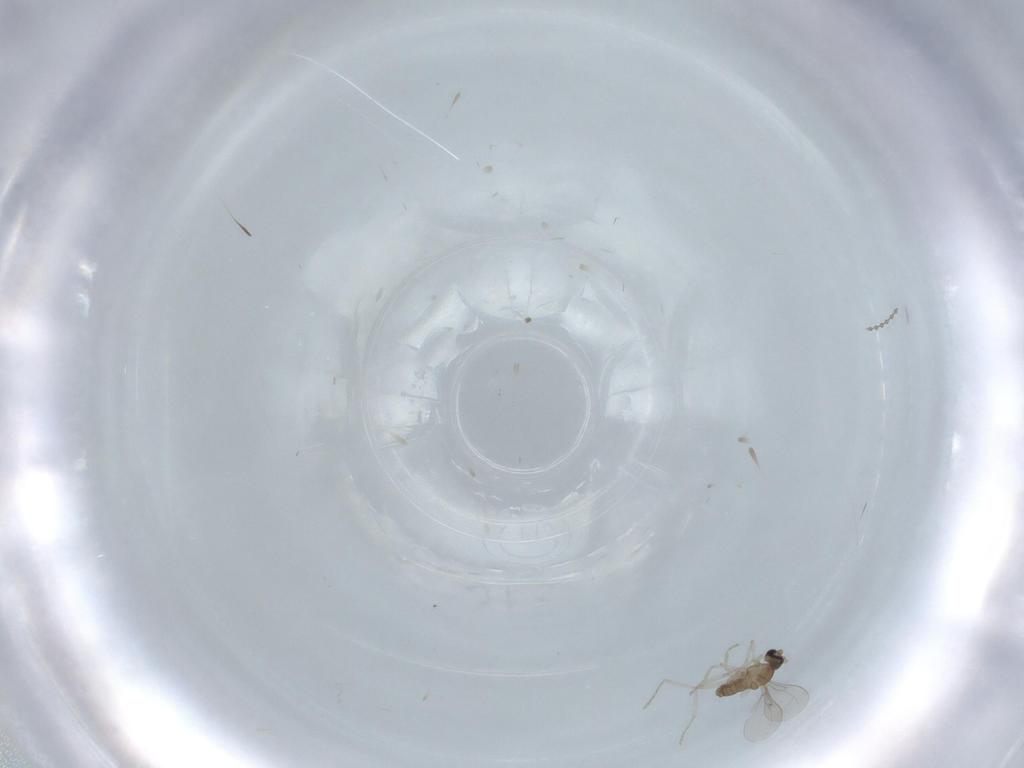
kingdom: Animalia
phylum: Arthropoda
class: Insecta
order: Diptera
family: Cecidomyiidae
